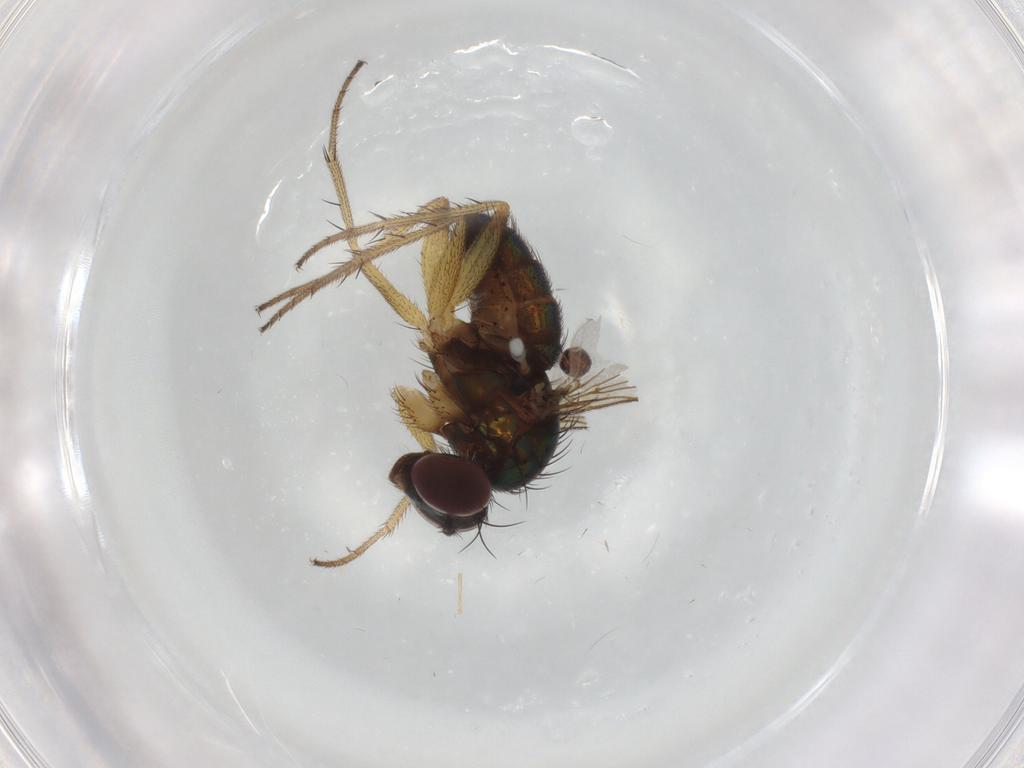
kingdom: Animalia
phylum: Arthropoda
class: Insecta
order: Diptera
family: Dolichopodidae
